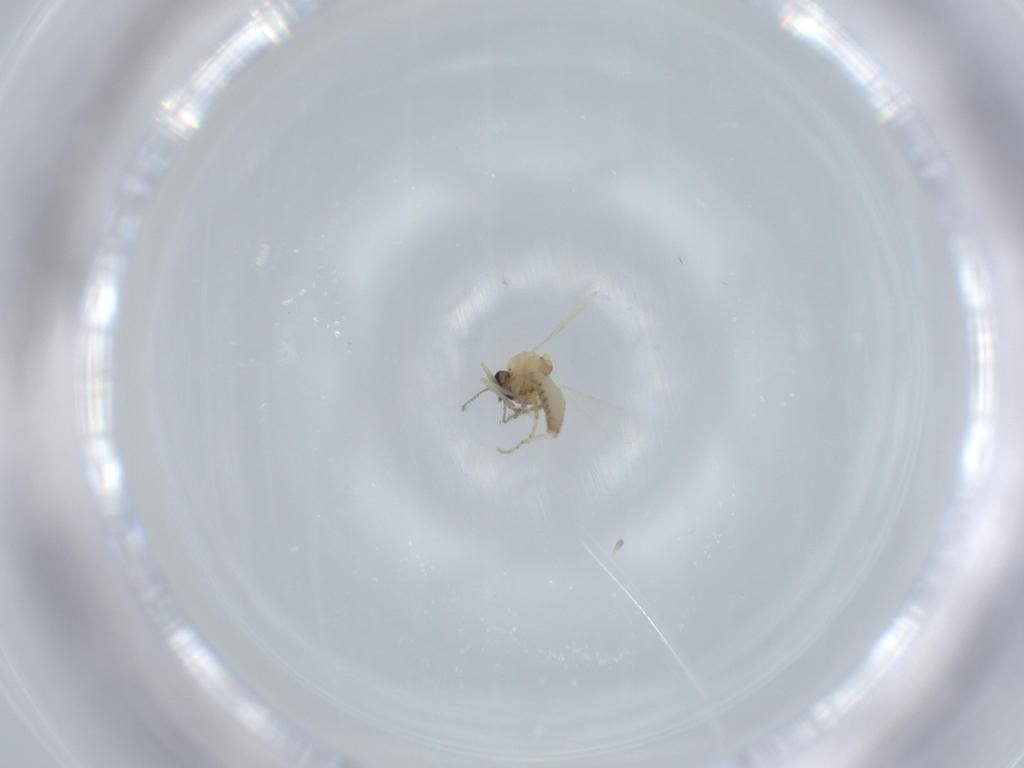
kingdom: Animalia
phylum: Arthropoda
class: Insecta
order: Diptera
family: Ceratopogonidae
